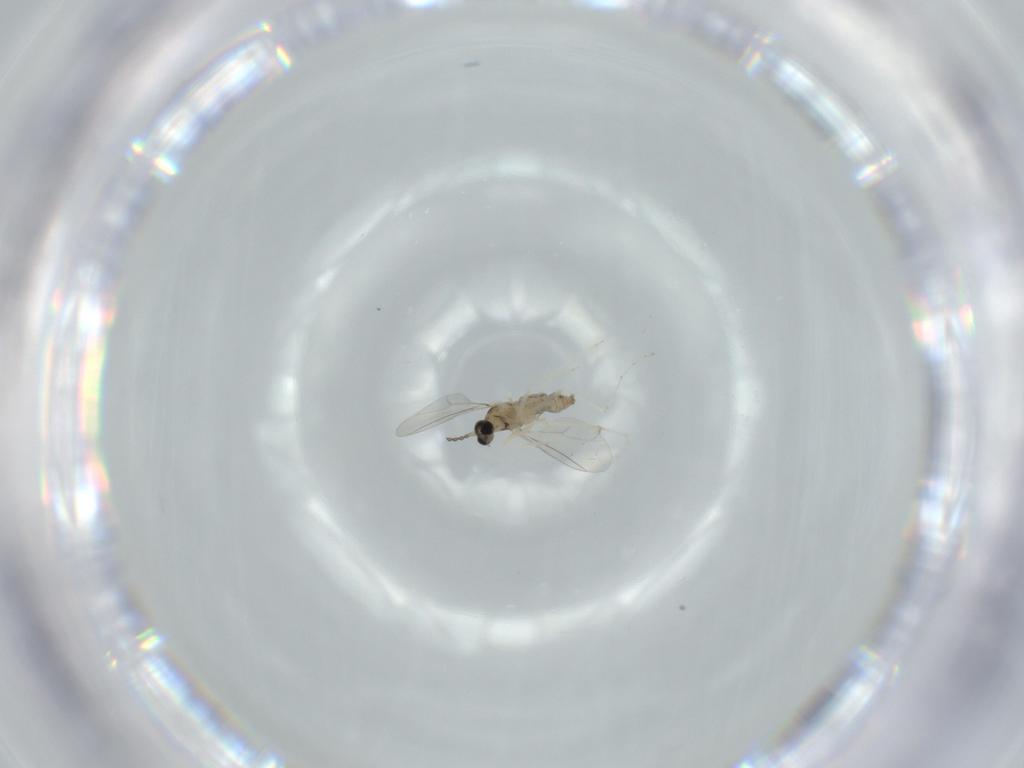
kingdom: Animalia
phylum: Arthropoda
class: Insecta
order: Diptera
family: Cecidomyiidae
